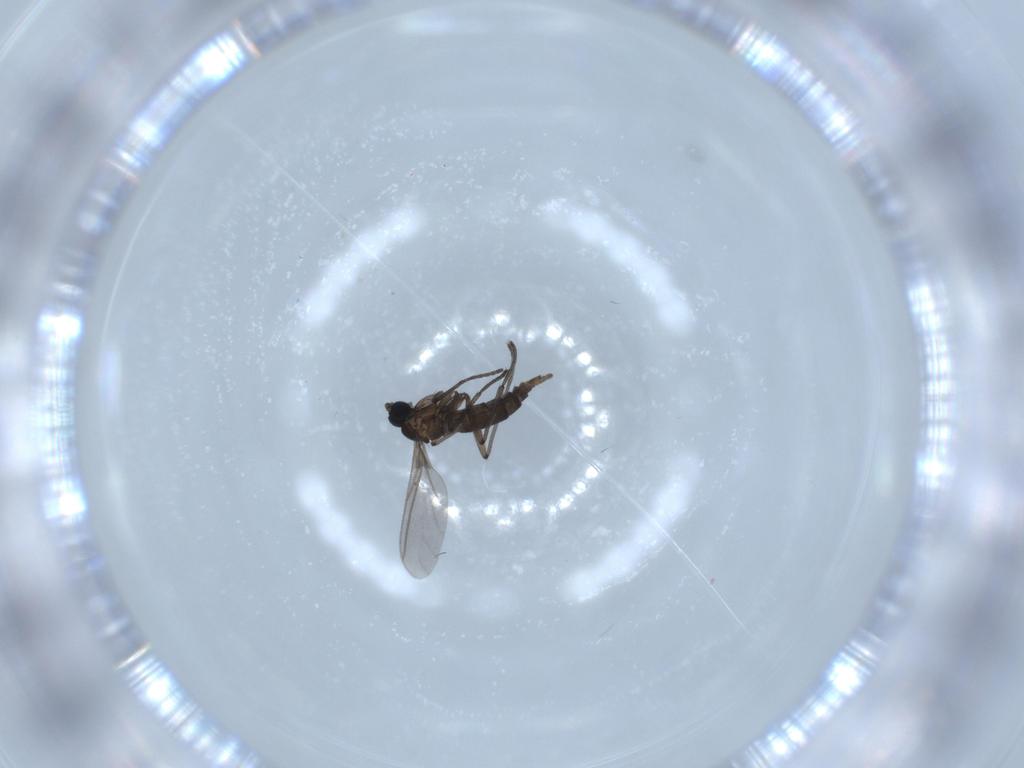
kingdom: Animalia
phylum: Arthropoda
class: Insecta
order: Diptera
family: Sciaridae
